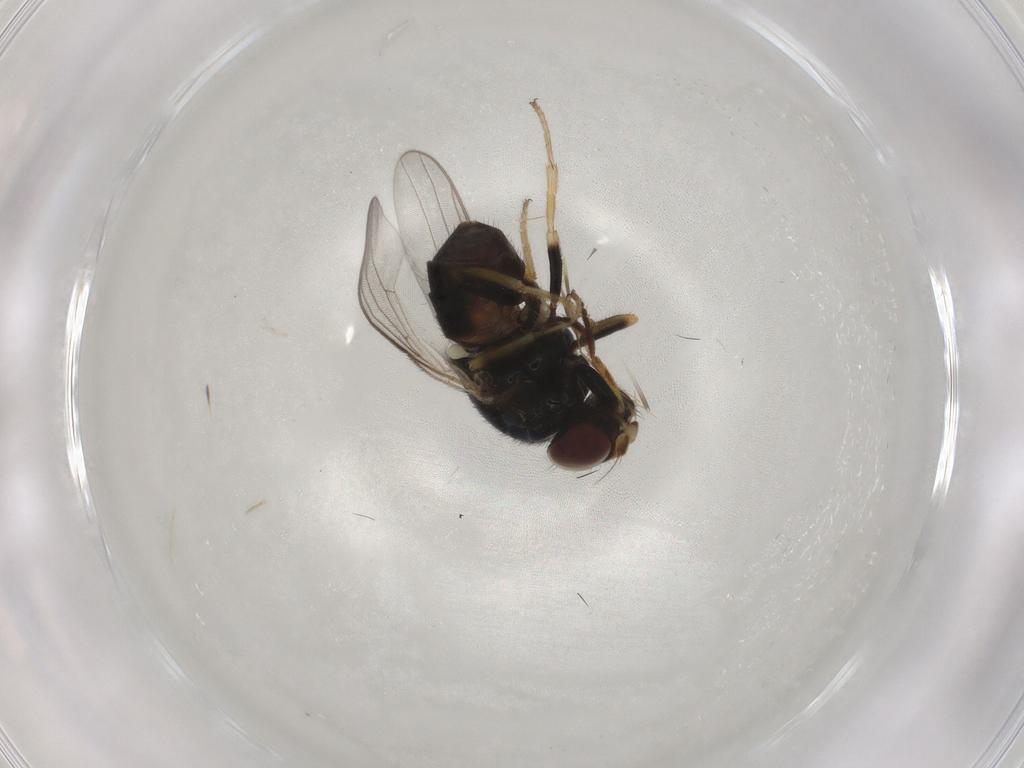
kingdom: Animalia
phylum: Arthropoda
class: Insecta
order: Diptera
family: Chloropidae
